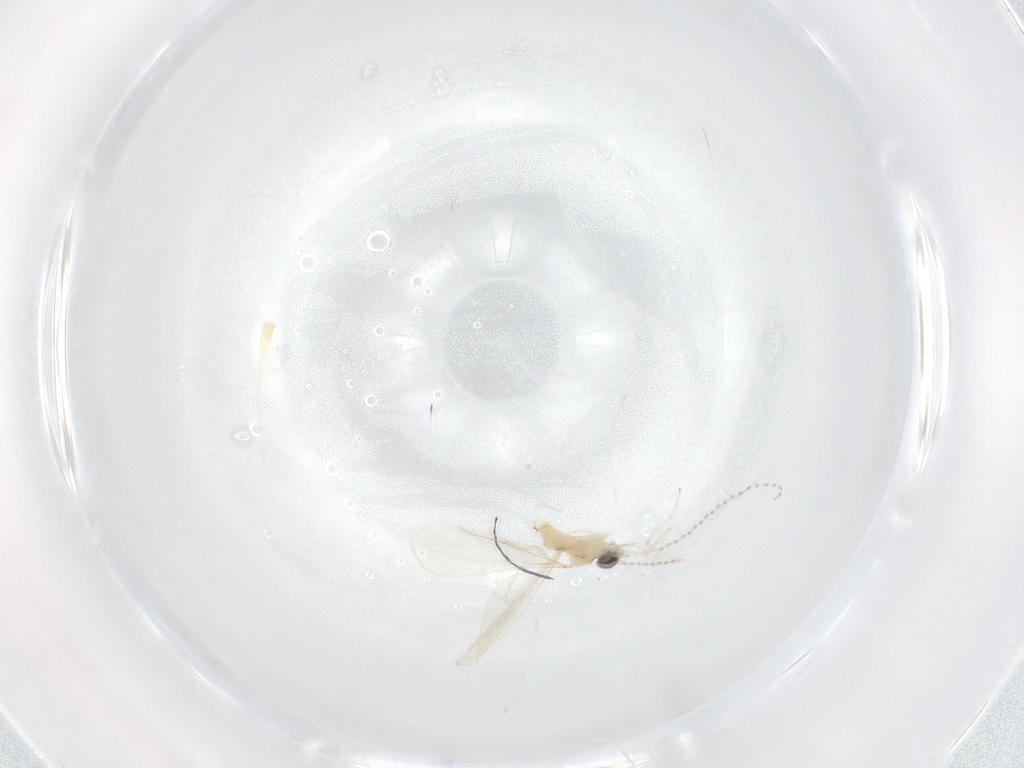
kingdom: Animalia
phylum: Arthropoda
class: Insecta
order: Diptera
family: Cecidomyiidae
